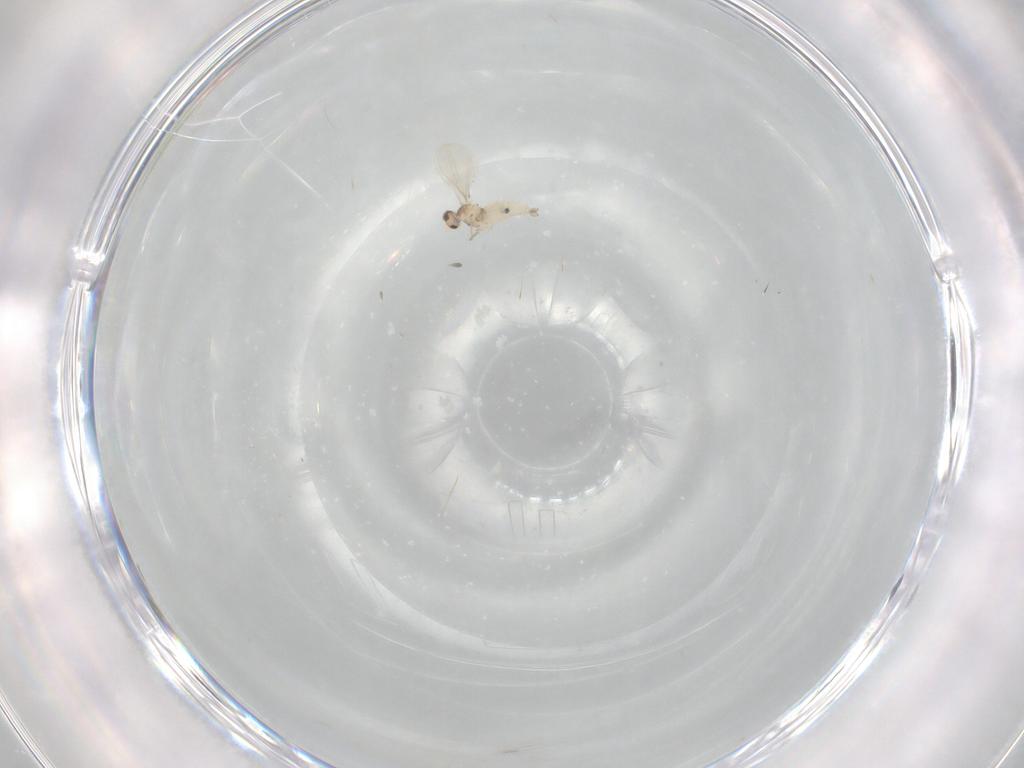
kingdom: Animalia
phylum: Arthropoda
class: Insecta
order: Diptera
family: Cecidomyiidae
